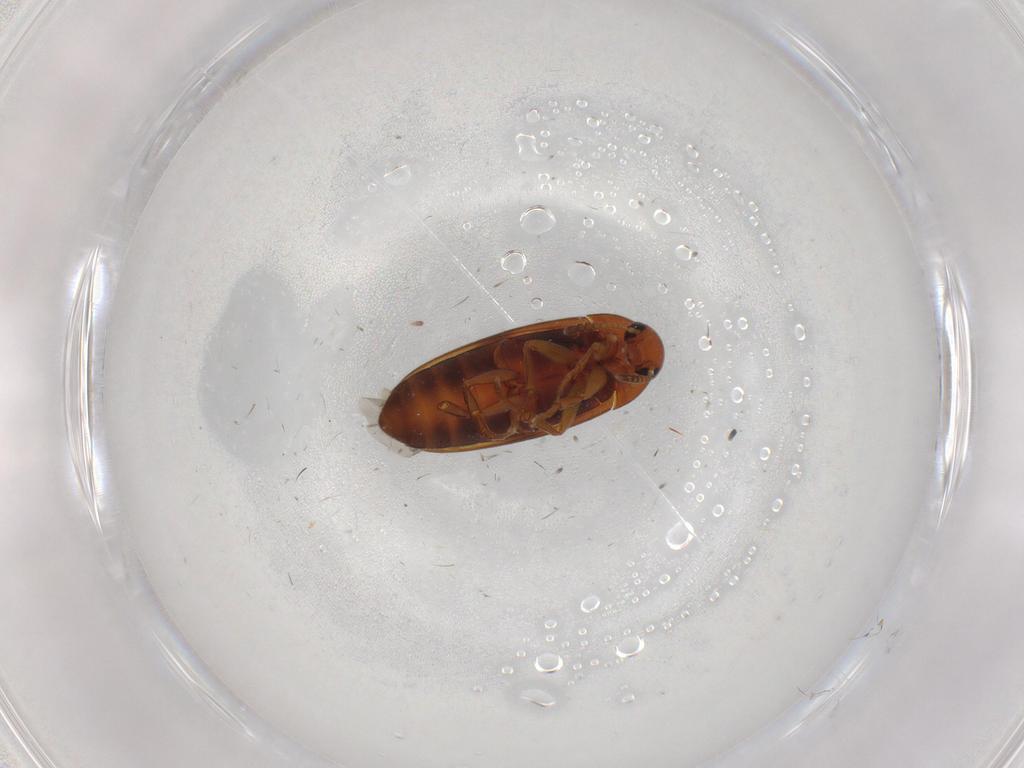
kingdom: Animalia
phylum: Arthropoda
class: Insecta
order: Coleoptera
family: Scraptiidae
